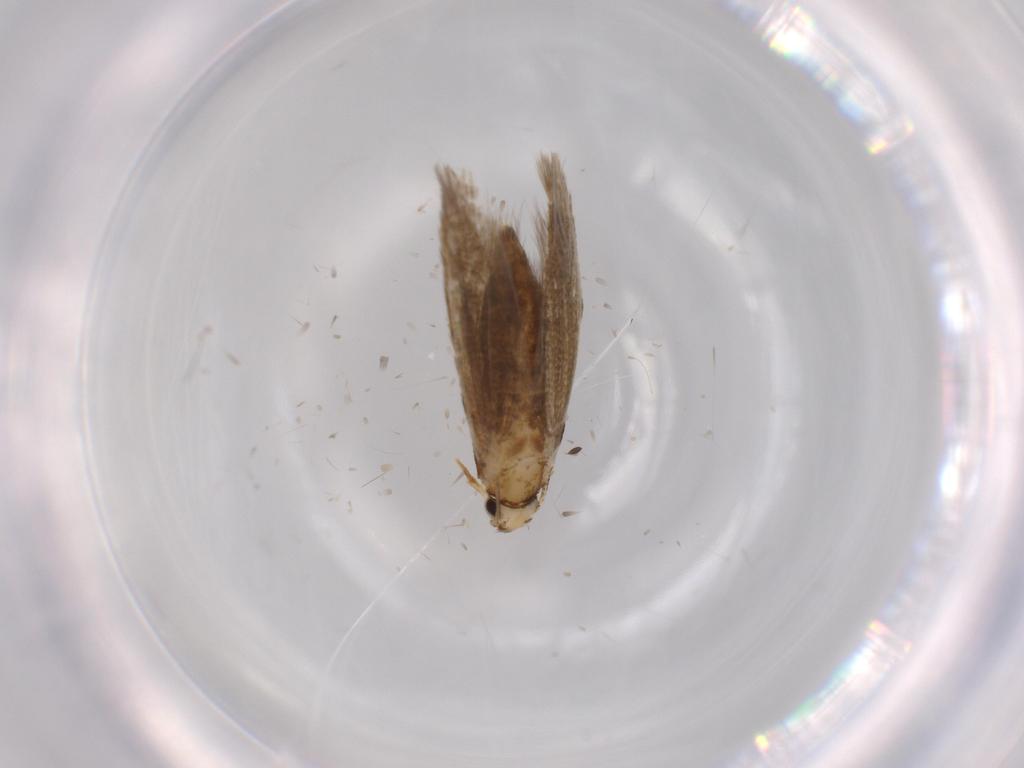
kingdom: Animalia
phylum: Arthropoda
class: Insecta
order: Lepidoptera
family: Tineidae
